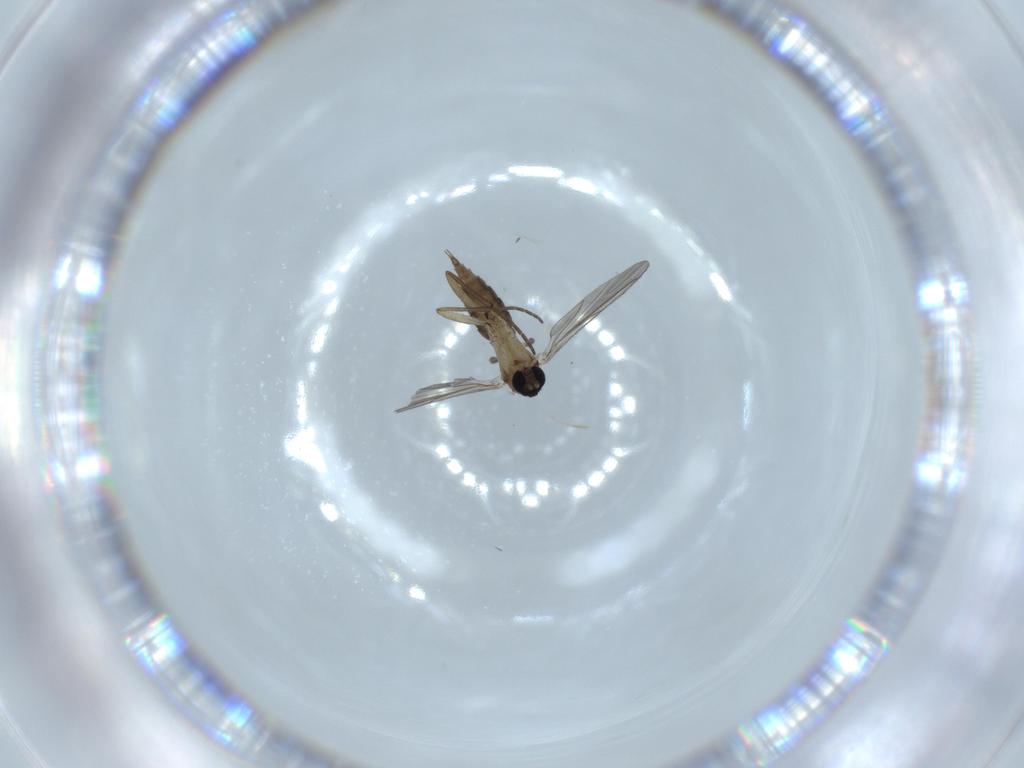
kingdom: Animalia
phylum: Arthropoda
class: Insecta
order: Diptera
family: Sciaridae
